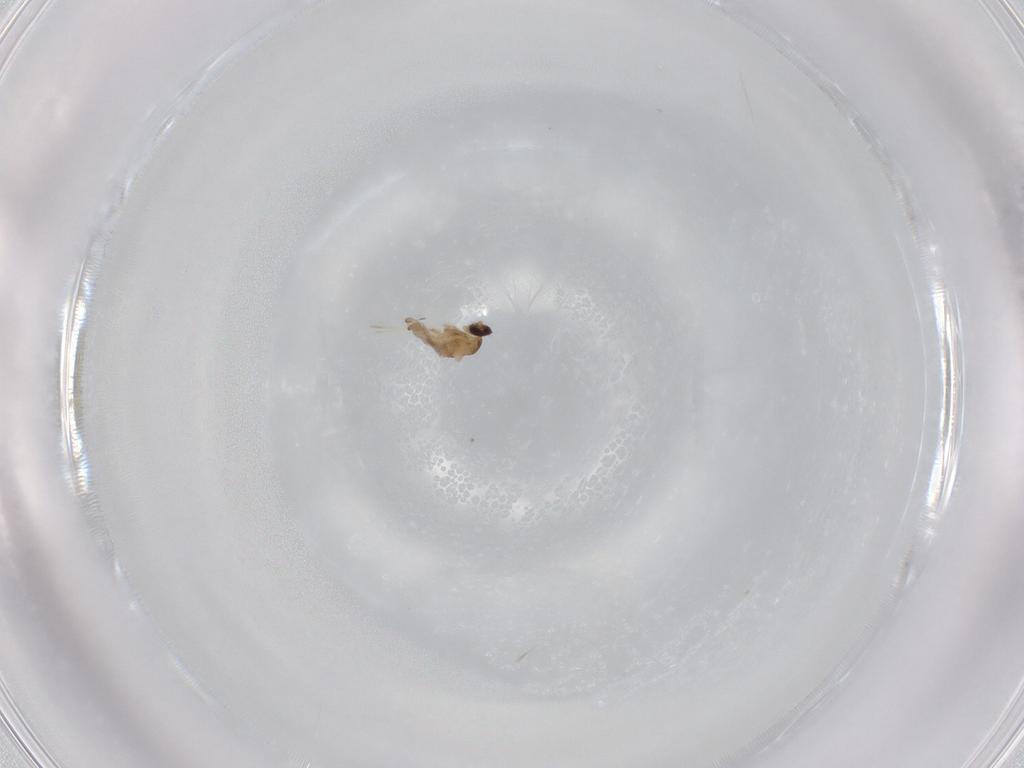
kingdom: Animalia
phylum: Arthropoda
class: Insecta
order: Diptera
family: Cecidomyiidae
